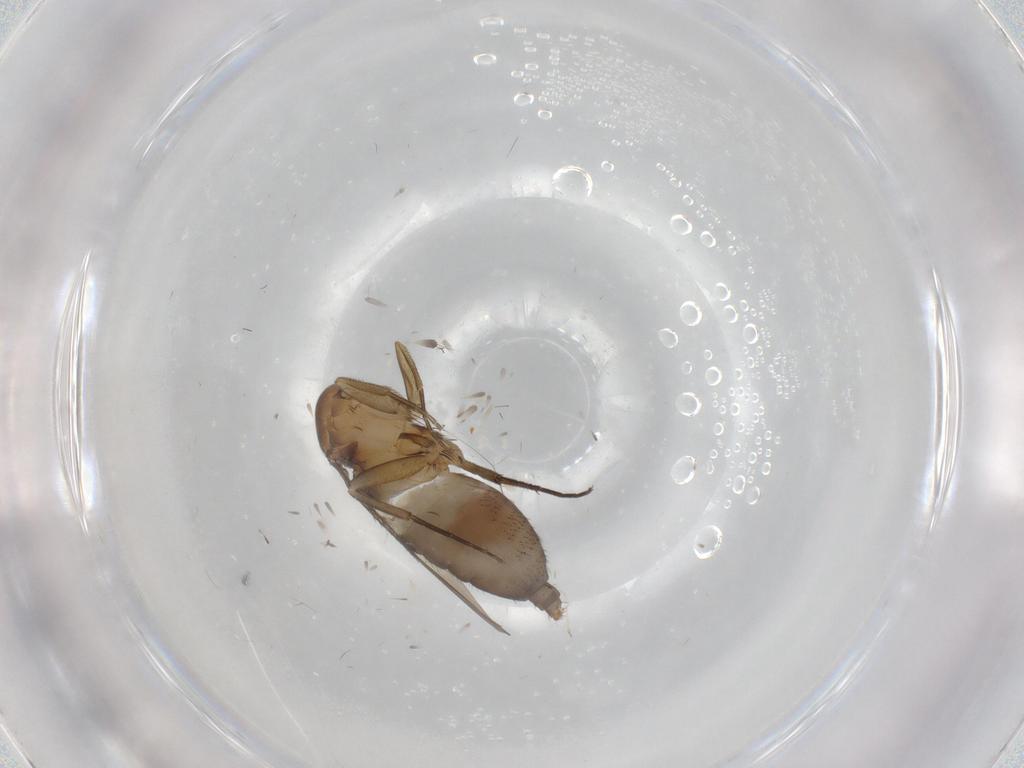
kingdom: Animalia
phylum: Arthropoda
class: Insecta
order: Diptera
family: Phoridae
